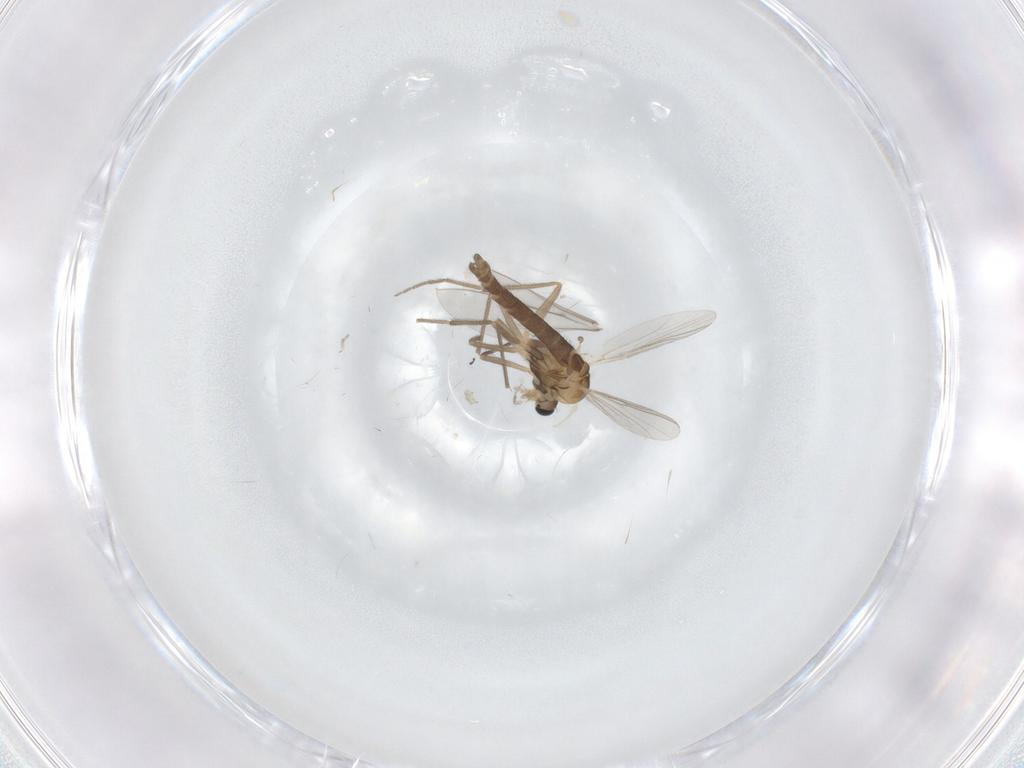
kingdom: Animalia
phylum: Arthropoda
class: Insecta
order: Diptera
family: Chironomidae
